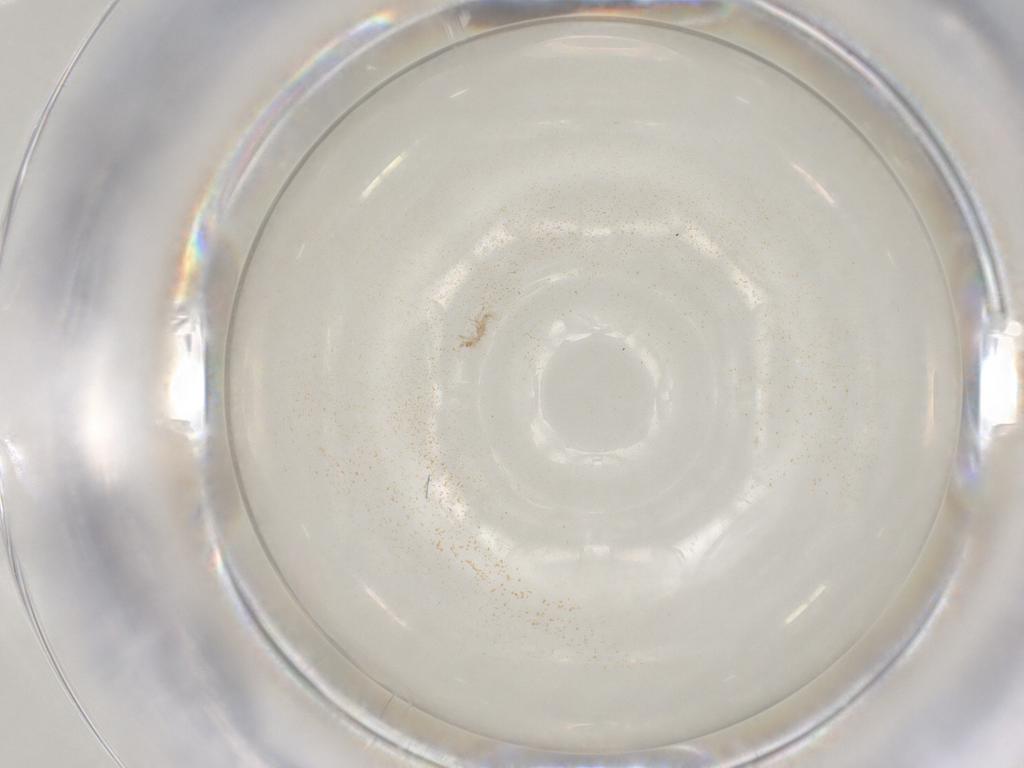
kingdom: Animalia
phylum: Arthropoda
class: Insecta
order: Psocodea
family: Lepidopsocidae
